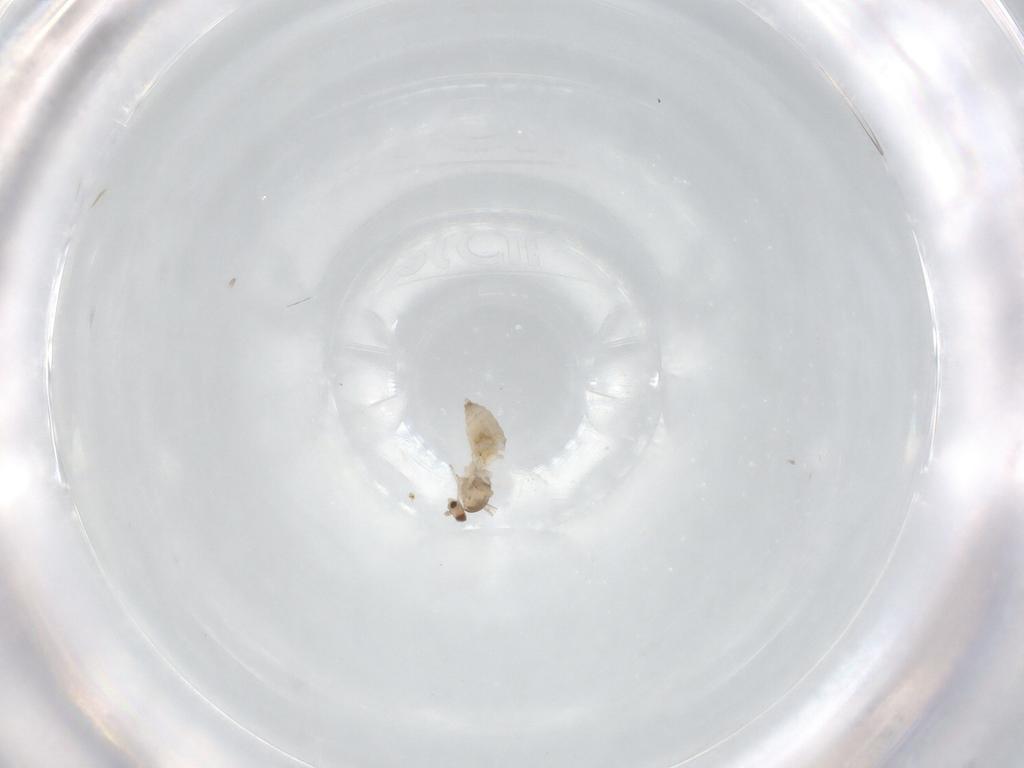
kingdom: Animalia
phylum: Arthropoda
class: Insecta
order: Diptera
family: Cecidomyiidae
